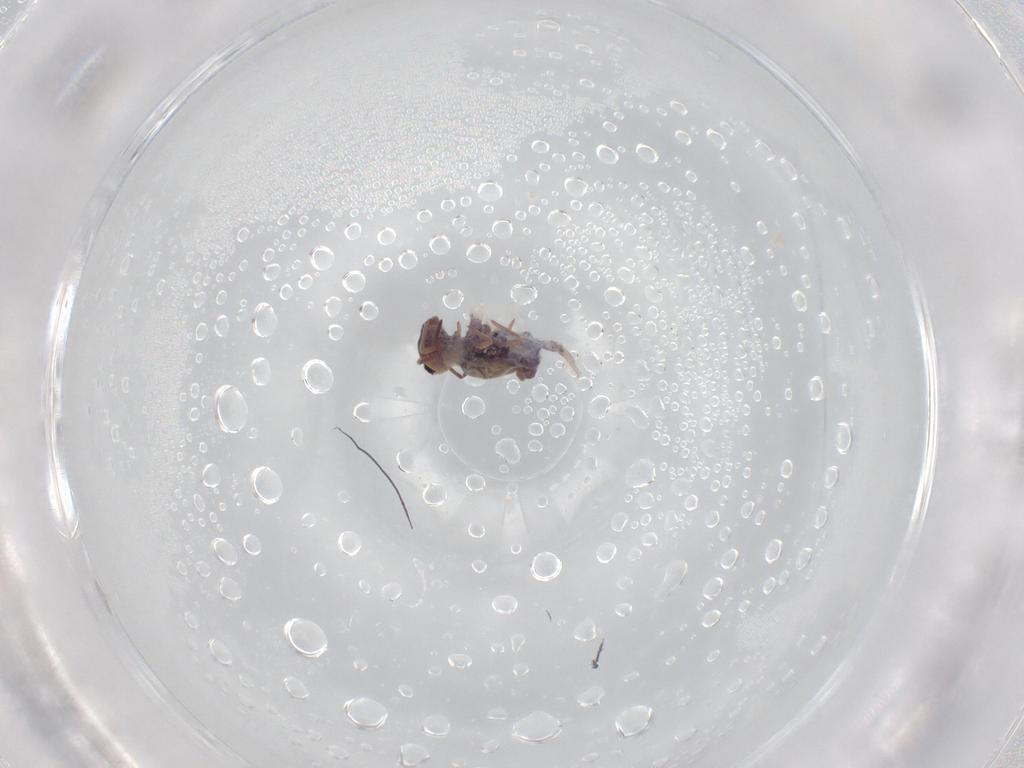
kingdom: Animalia
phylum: Arthropoda
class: Collembola
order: Symphypleona
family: Bourletiellidae
